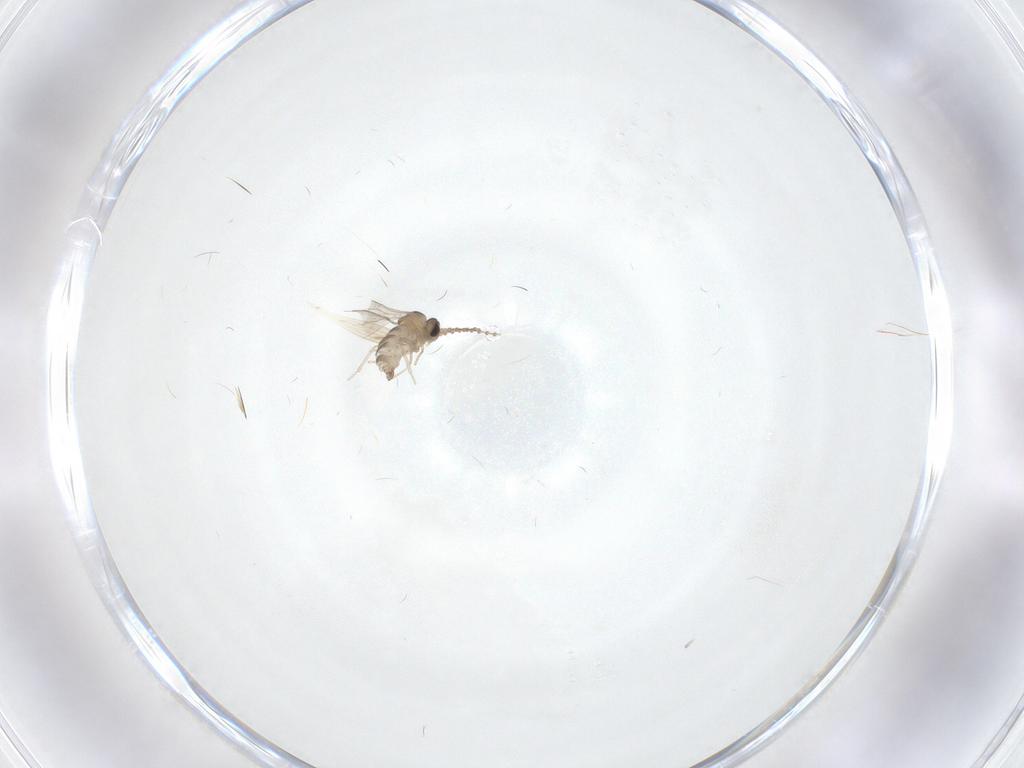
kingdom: Animalia
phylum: Arthropoda
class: Insecta
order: Diptera
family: Cecidomyiidae
